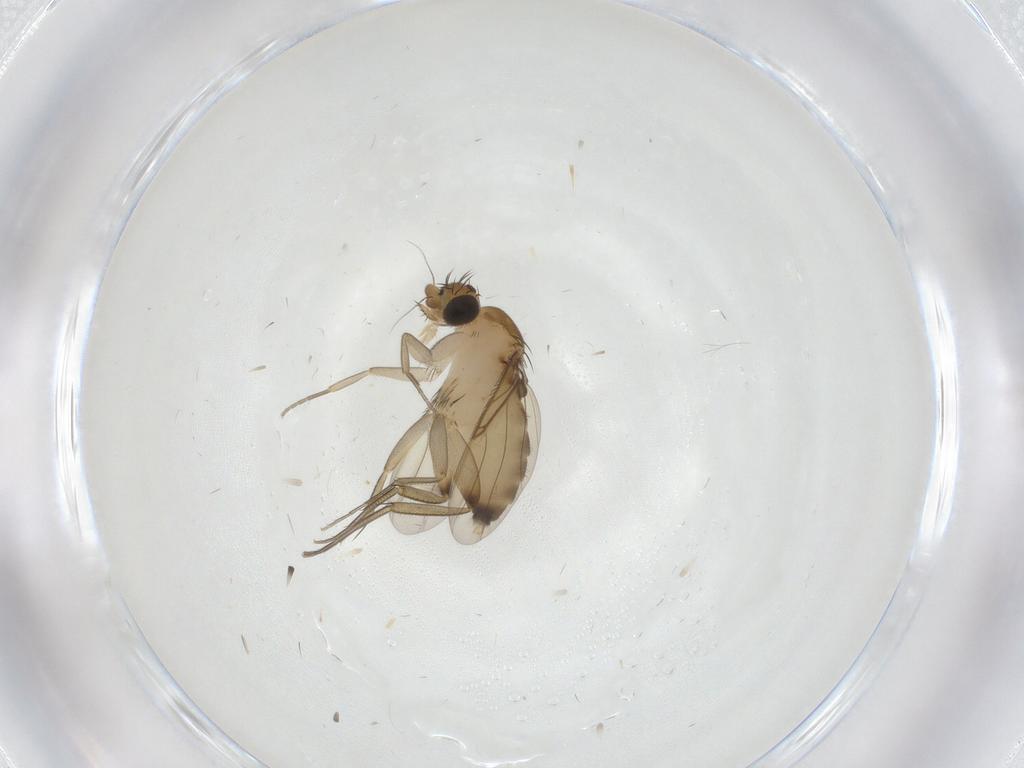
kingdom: Animalia
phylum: Arthropoda
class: Insecta
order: Diptera
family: Phoridae
